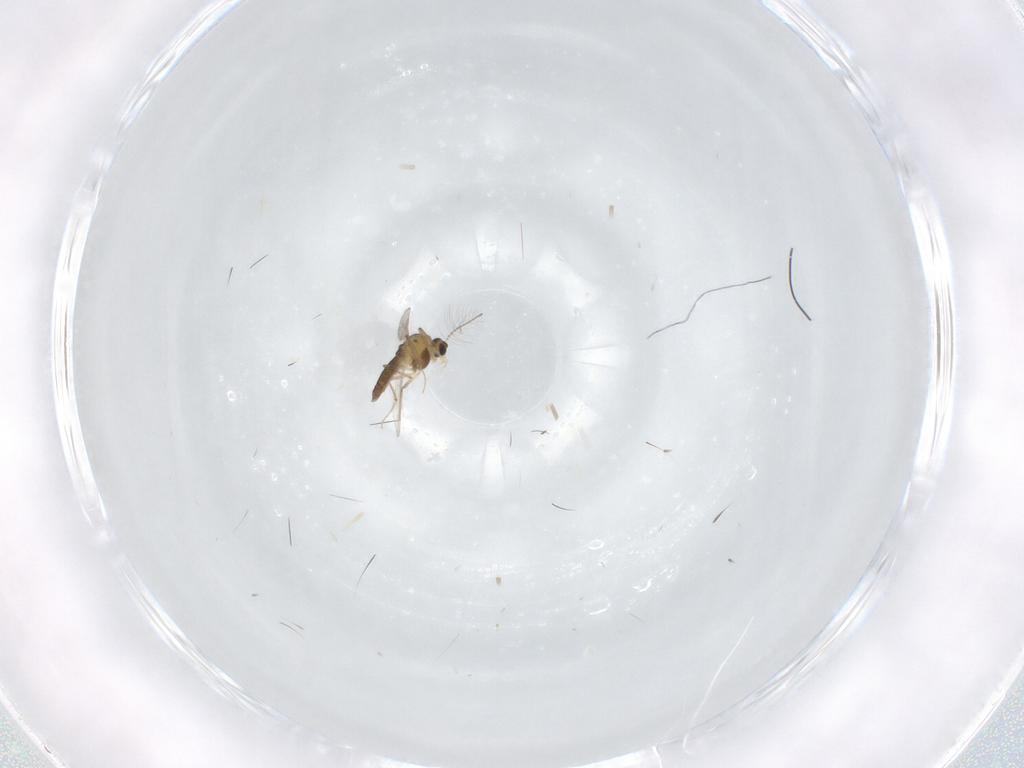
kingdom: Animalia
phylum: Arthropoda
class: Insecta
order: Diptera
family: Chironomidae
